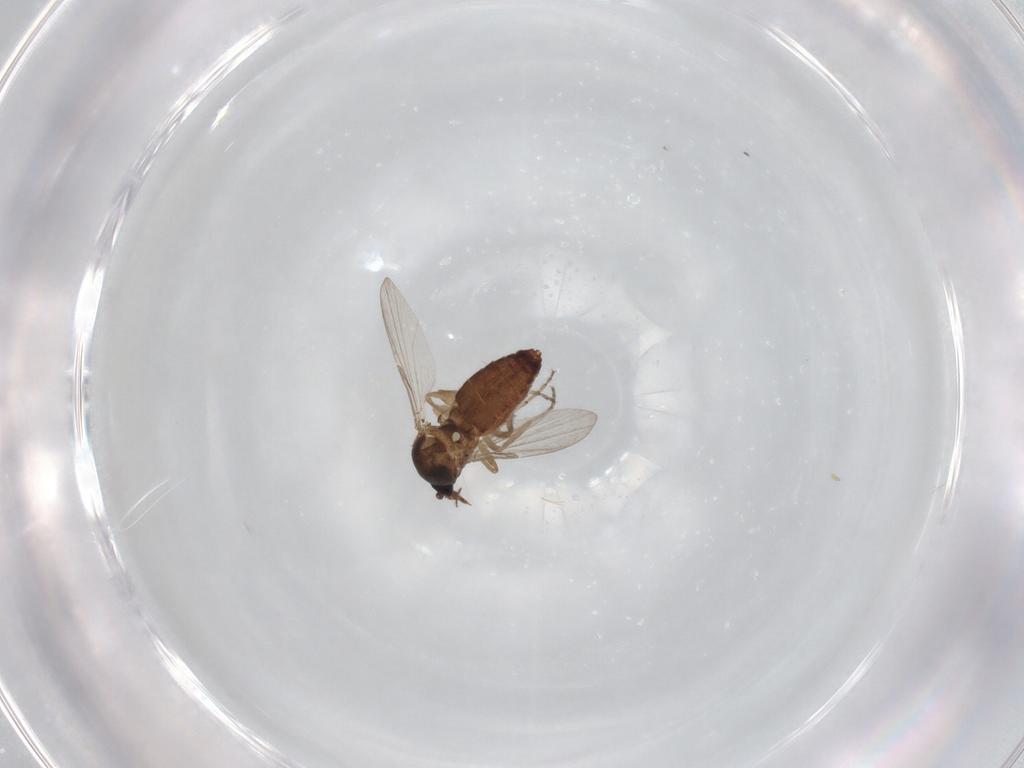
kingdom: Animalia
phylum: Arthropoda
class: Insecta
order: Diptera
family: Ceratopogonidae
